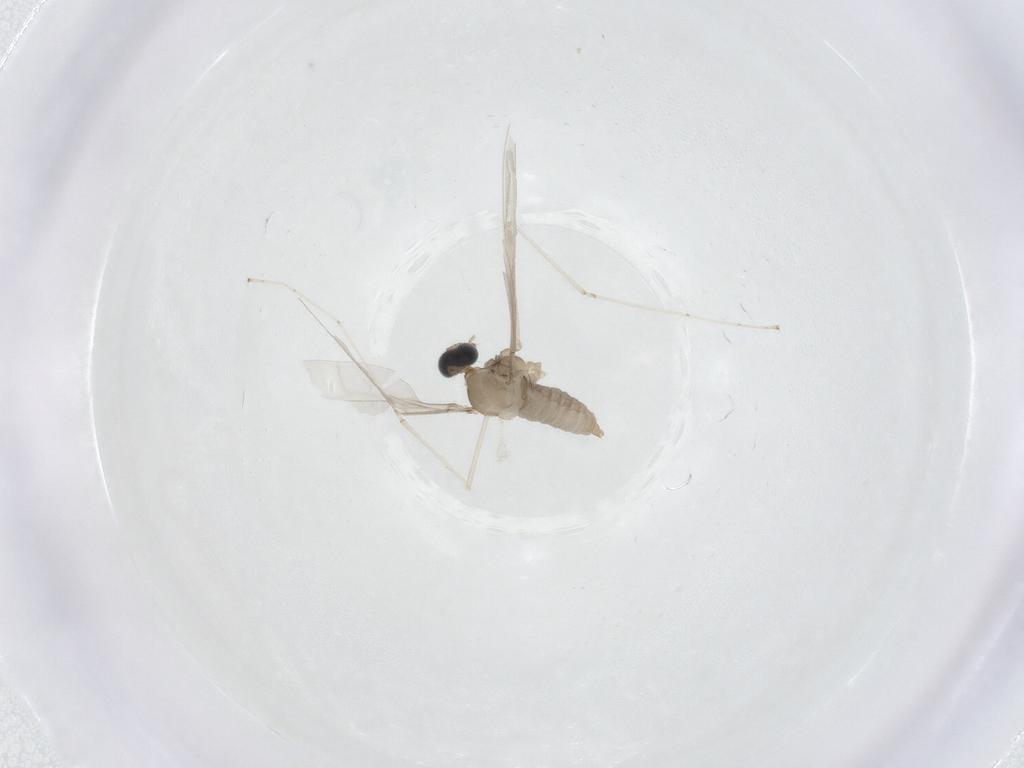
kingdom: Animalia
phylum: Arthropoda
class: Insecta
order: Diptera
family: Cecidomyiidae
